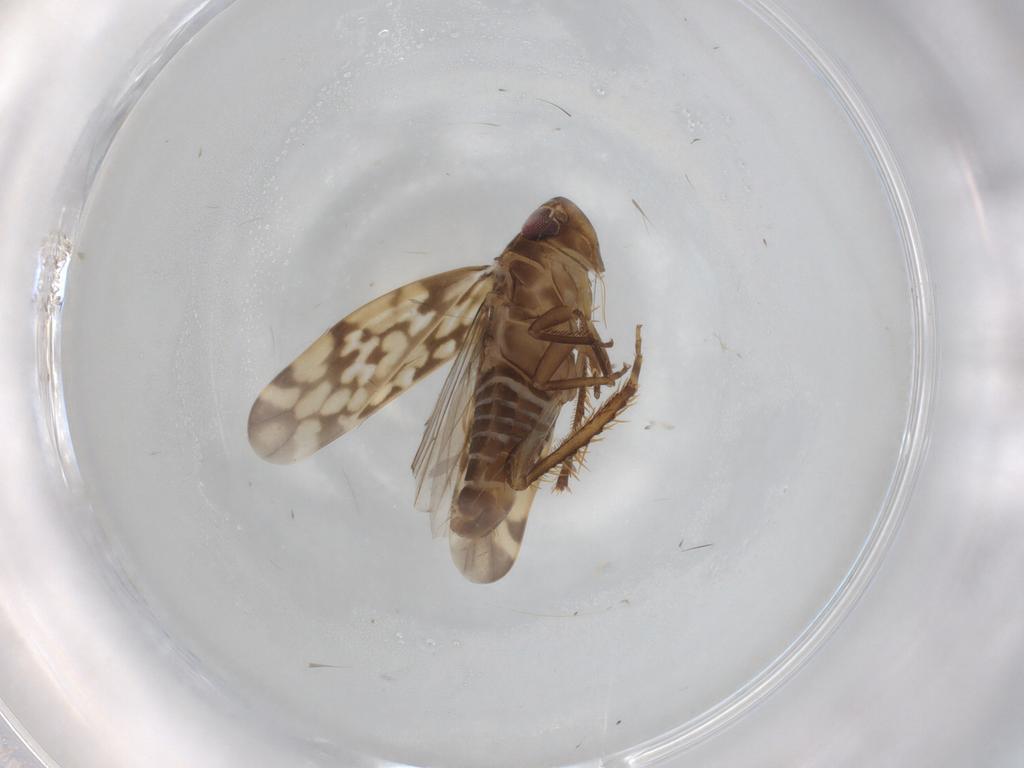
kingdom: Animalia
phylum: Arthropoda
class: Insecta
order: Hemiptera
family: Cicadellidae
